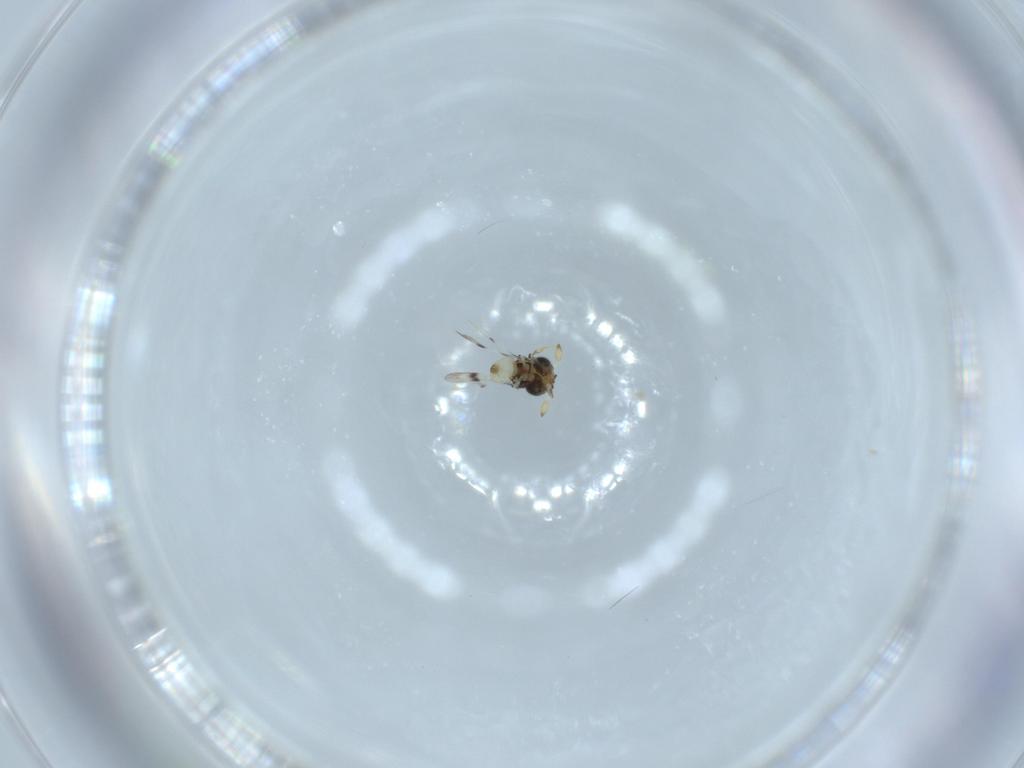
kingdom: Animalia
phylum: Arthropoda
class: Insecta
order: Hymenoptera
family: Scelionidae
